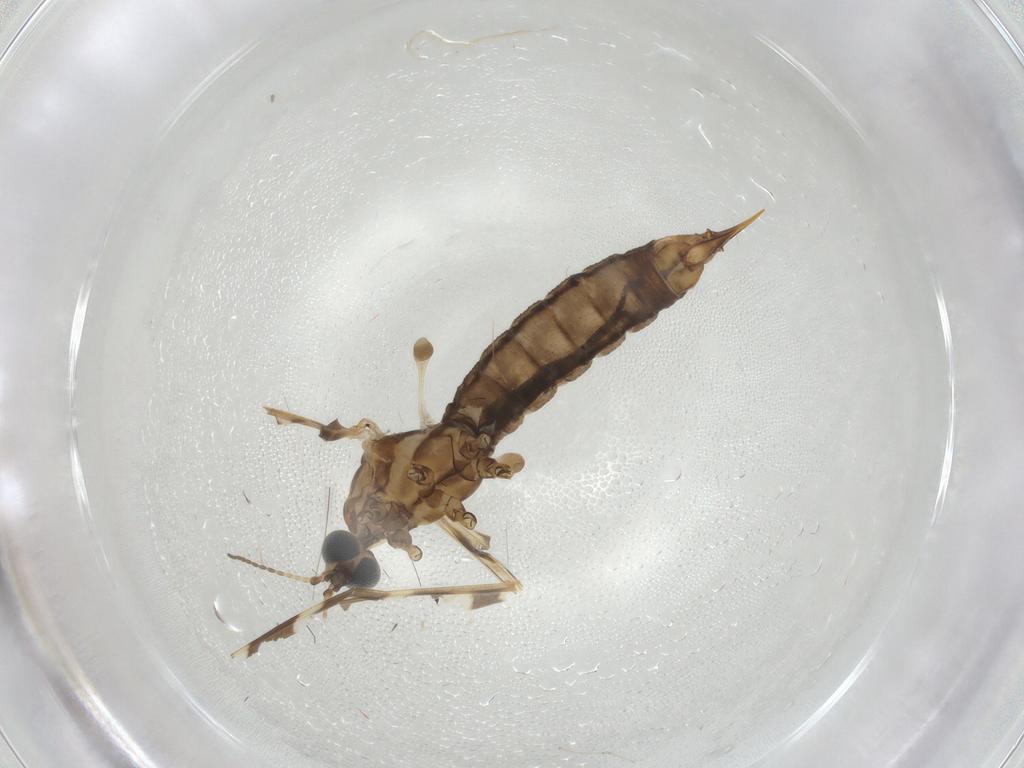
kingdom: Animalia
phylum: Arthropoda
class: Insecta
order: Diptera
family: Limoniidae
